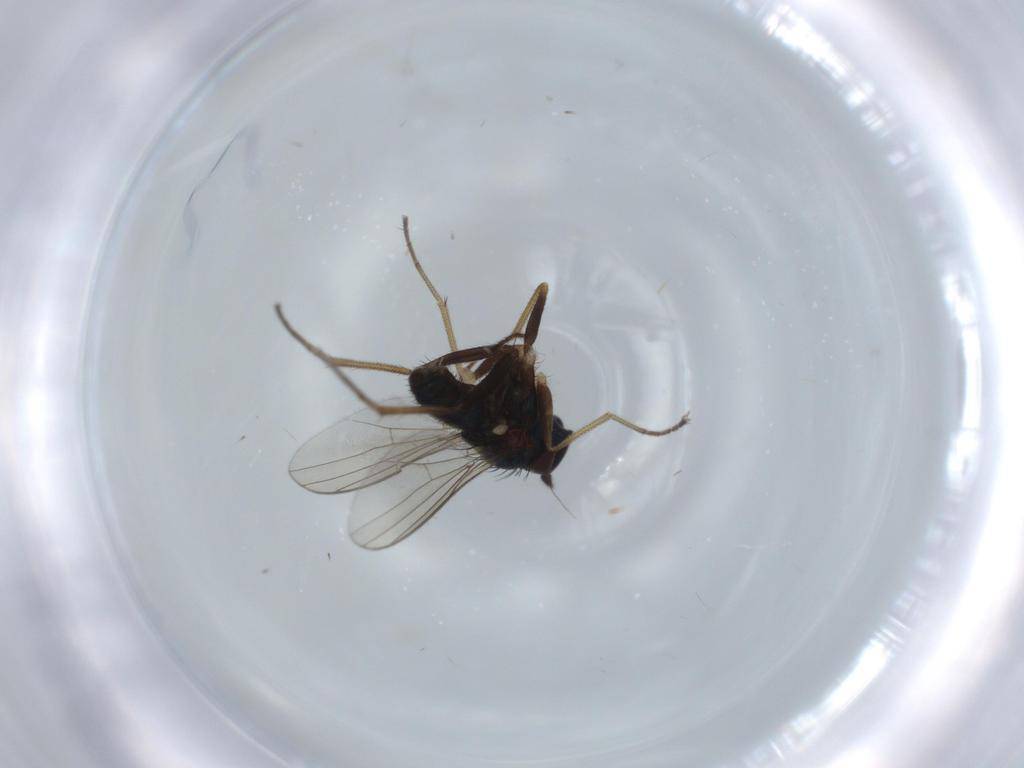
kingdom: Animalia
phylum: Arthropoda
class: Insecta
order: Diptera
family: Dolichopodidae
